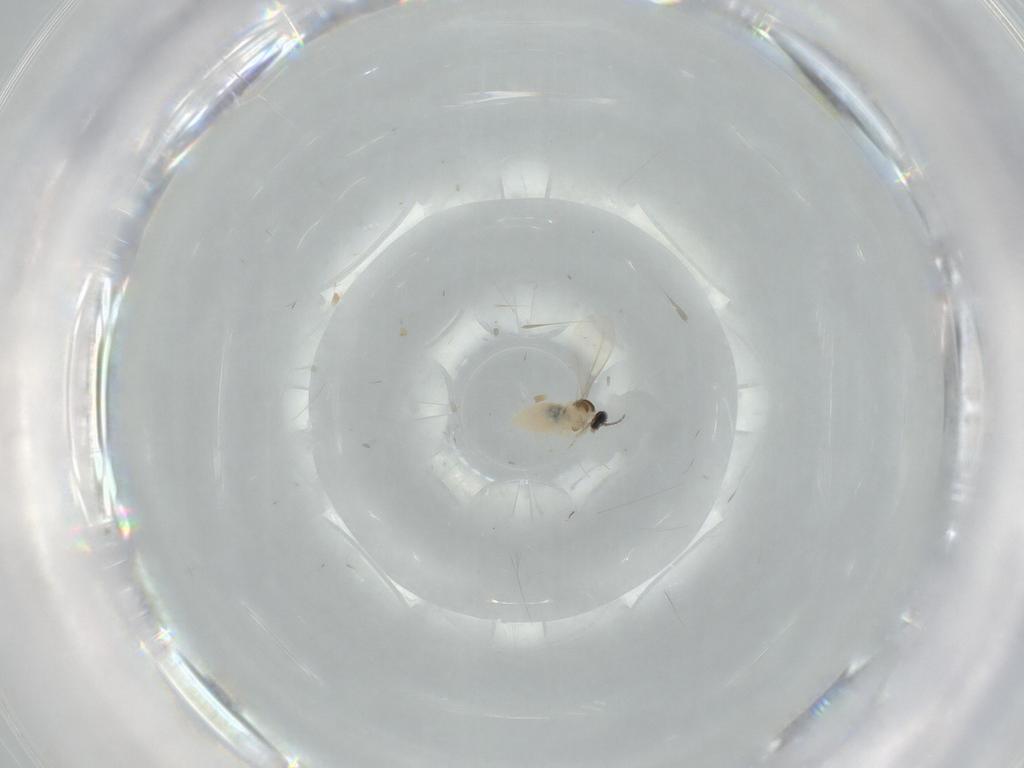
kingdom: Animalia
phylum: Arthropoda
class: Insecta
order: Diptera
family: Cecidomyiidae
